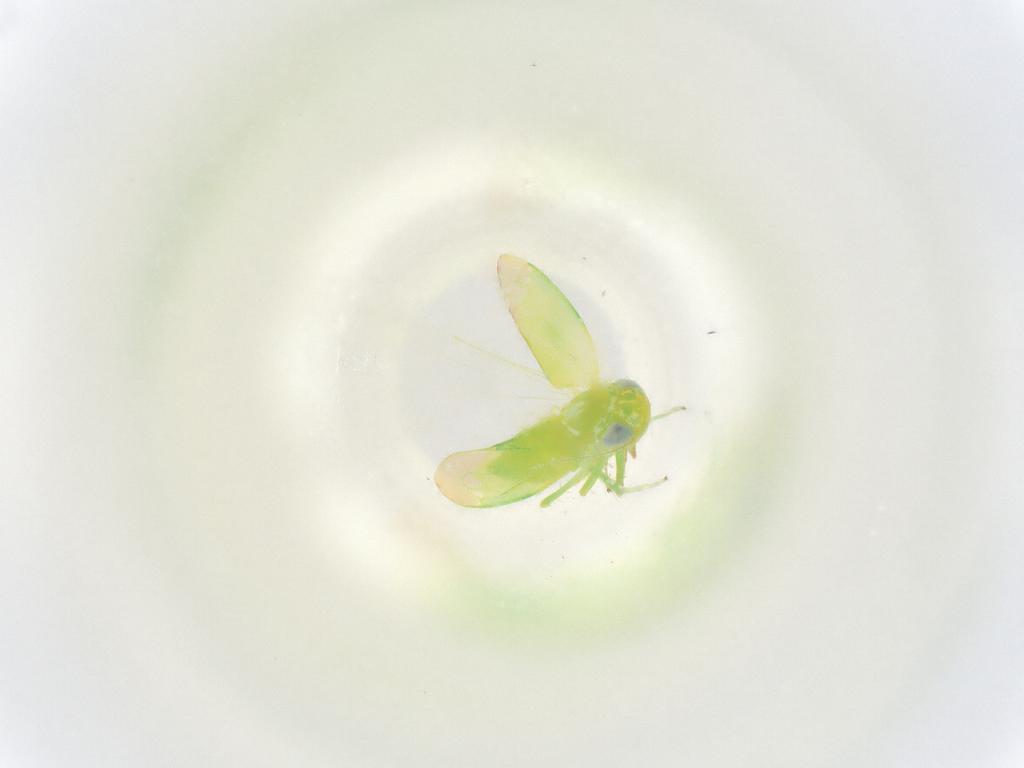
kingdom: Animalia
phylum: Arthropoda
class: Insecta
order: Hemiptera
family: Cicadellidae
